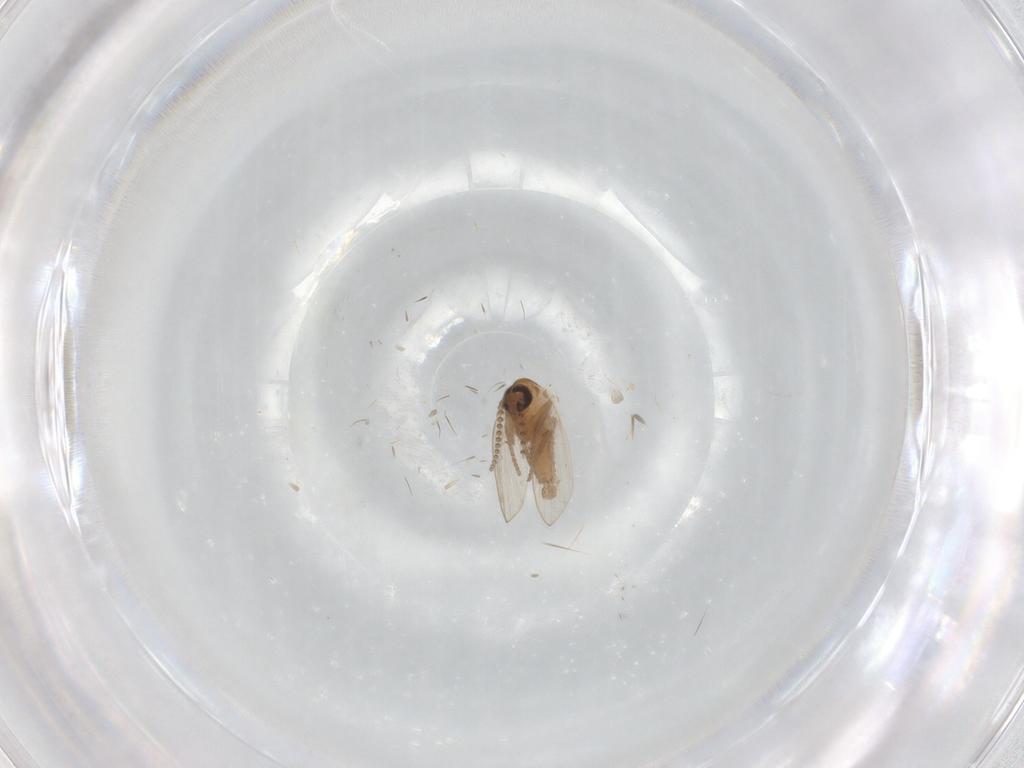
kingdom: Animalia
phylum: Arthropoda
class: Insecta
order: Diptera
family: Psychodidae
